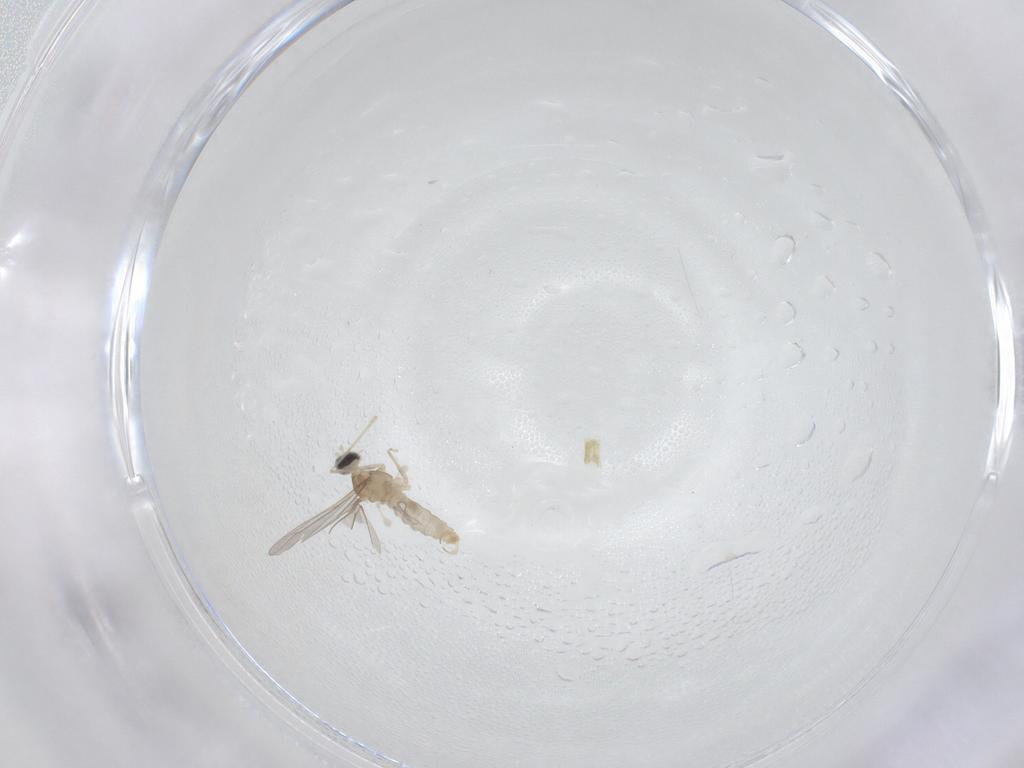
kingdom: Animalia
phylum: Arthropoda
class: Insecta
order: Diptera
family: Cecidomyiidae
